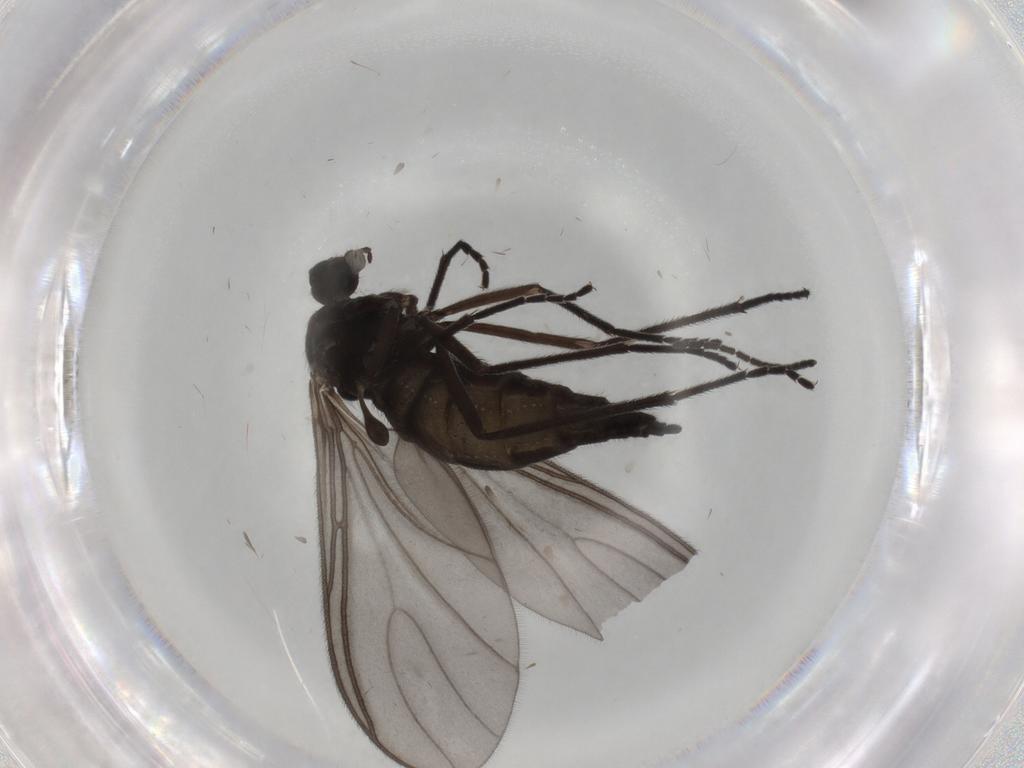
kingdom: Animalia
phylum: Arthropoda
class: Insecta
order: Diptera
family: Sciaridae
